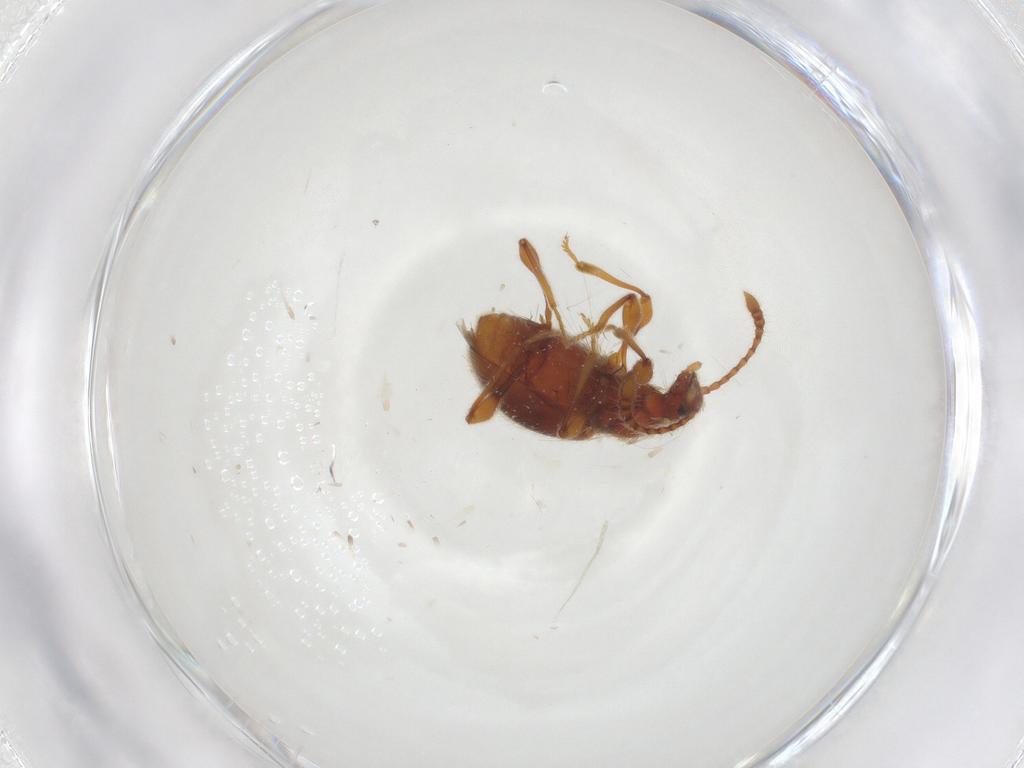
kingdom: Animalia
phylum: Arthropoda
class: Insecta
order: Coleoptera
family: Staphylinidae
